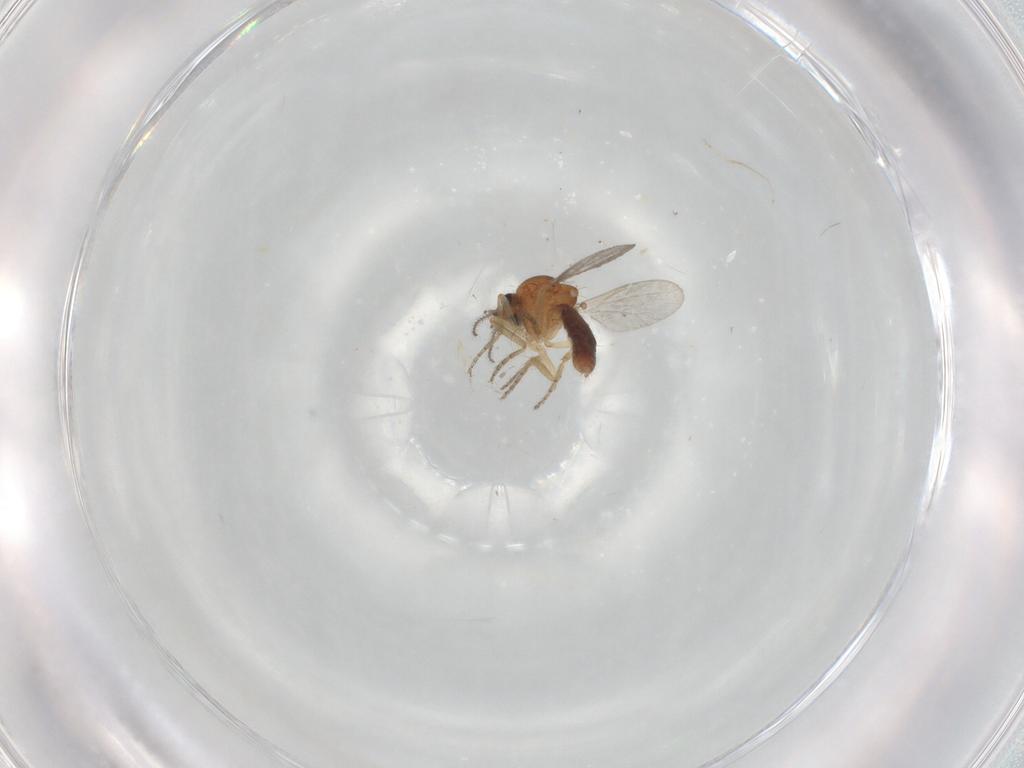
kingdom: Animalia
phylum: Arthropoda
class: Insecta
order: Diptera
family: Ceratopogonidae
